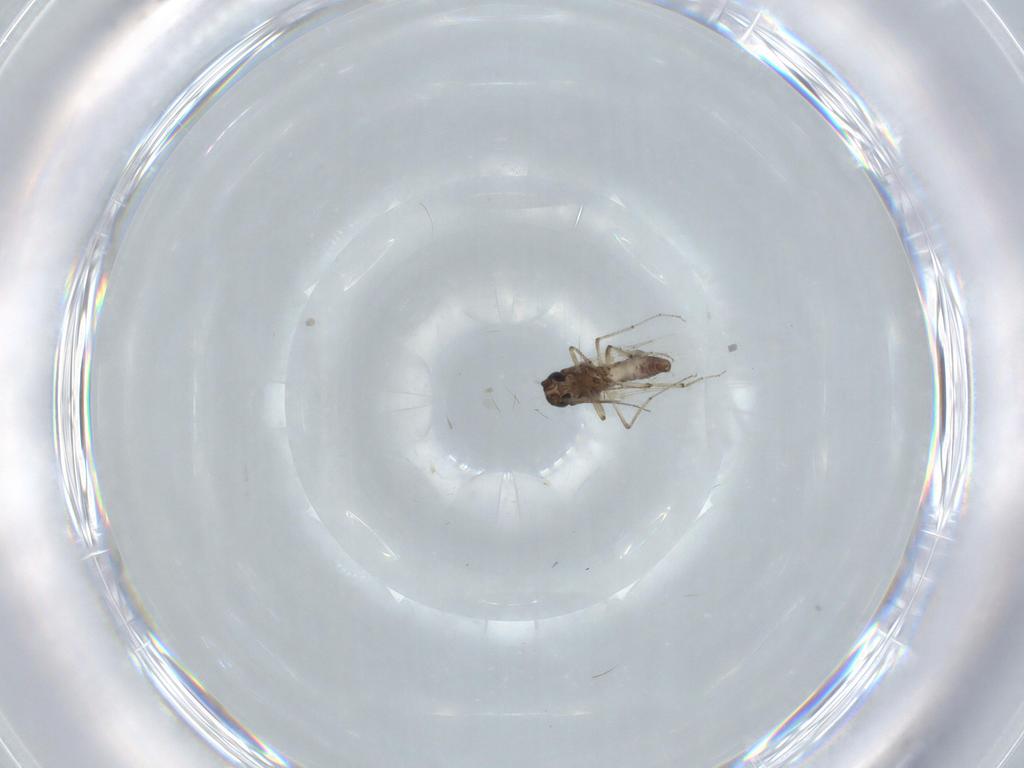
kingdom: Animalia
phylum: Arthropoda
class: Insecta
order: Diptera
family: Ceratopogonidae
